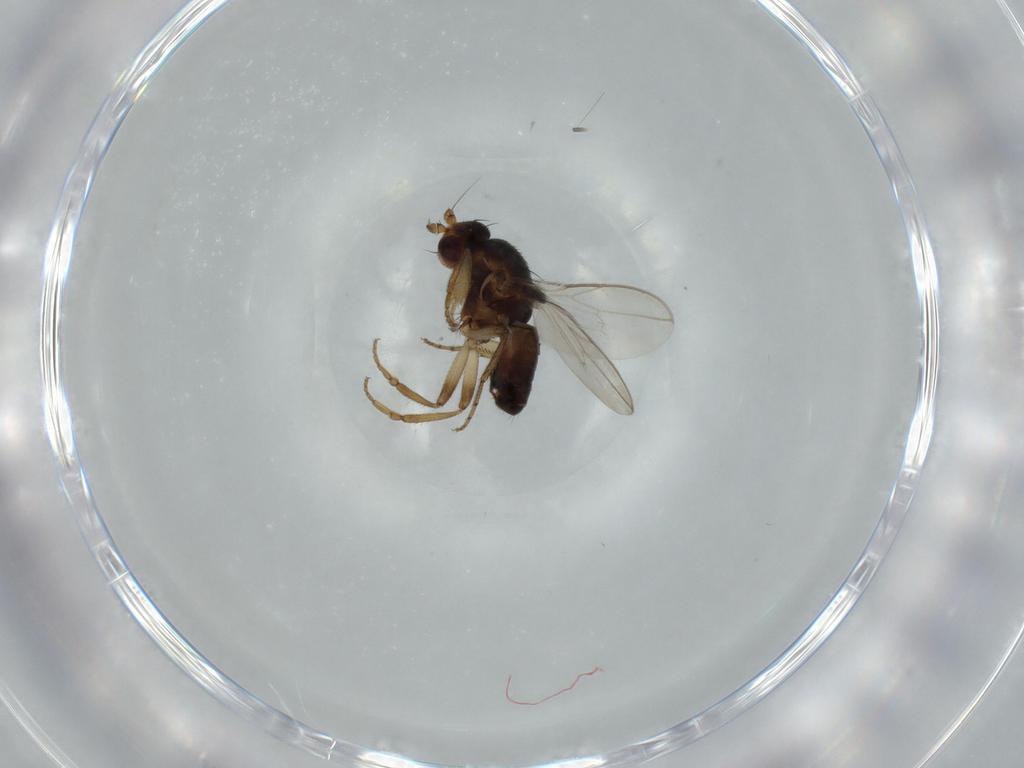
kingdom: Animalia
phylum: Arthropoda
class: Insecta
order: Diptera
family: Ceratopogonidae
